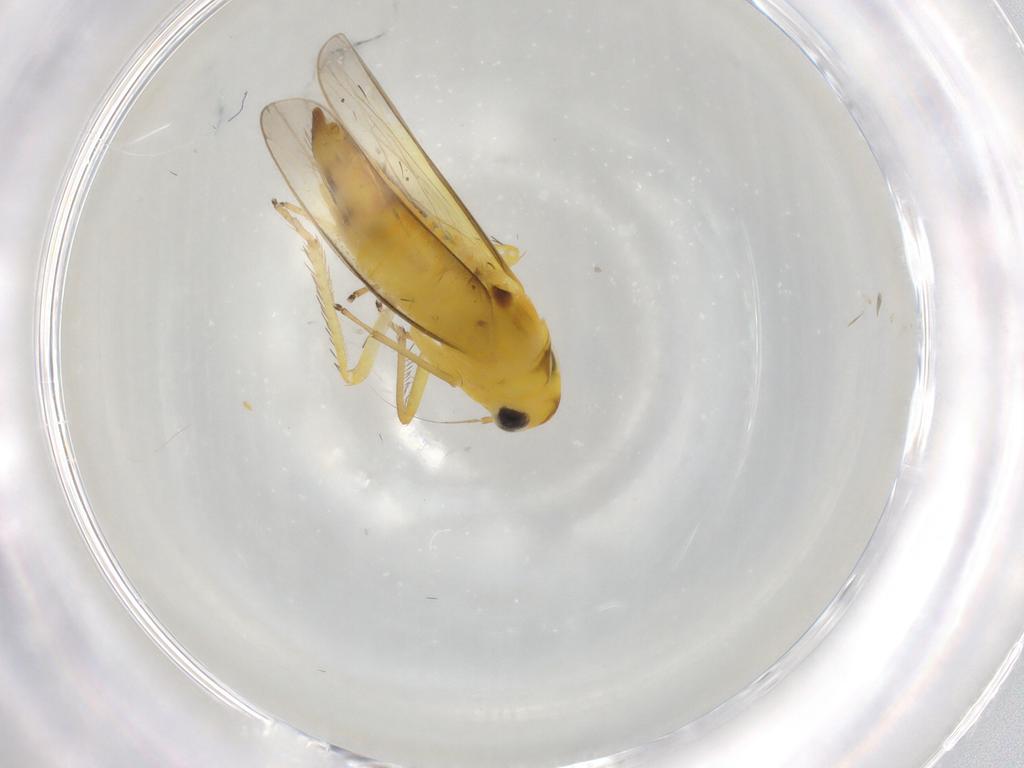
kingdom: Animalia
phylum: Arthropoda
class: Insecta
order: Hemiptera
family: Cicadellidae
